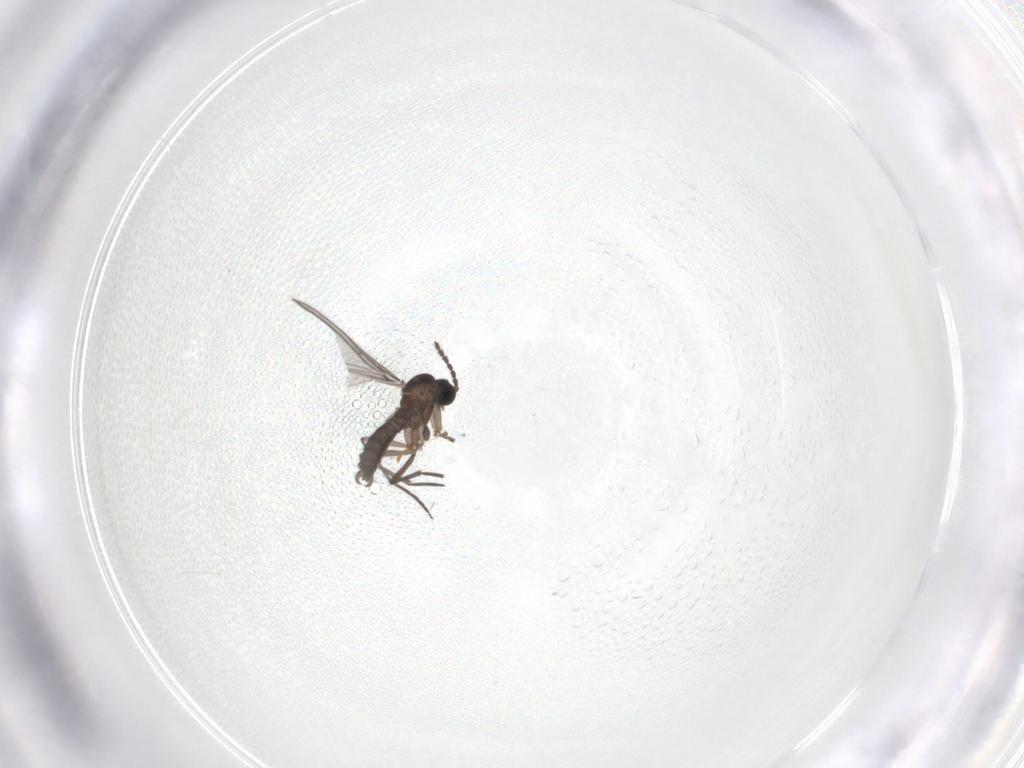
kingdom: Animalia
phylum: Arthropoda
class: Insecta
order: Diptera
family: Sciaridae
